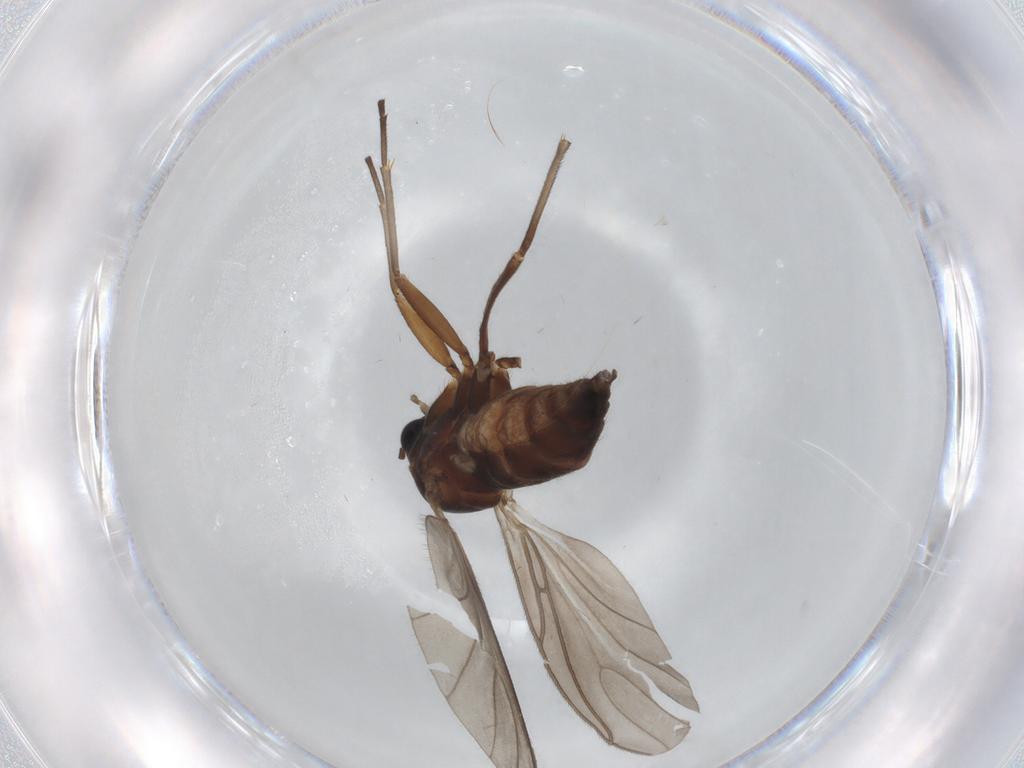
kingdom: Animalia
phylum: Arthropoda
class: Insecta
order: Diptera
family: Sciaridae
